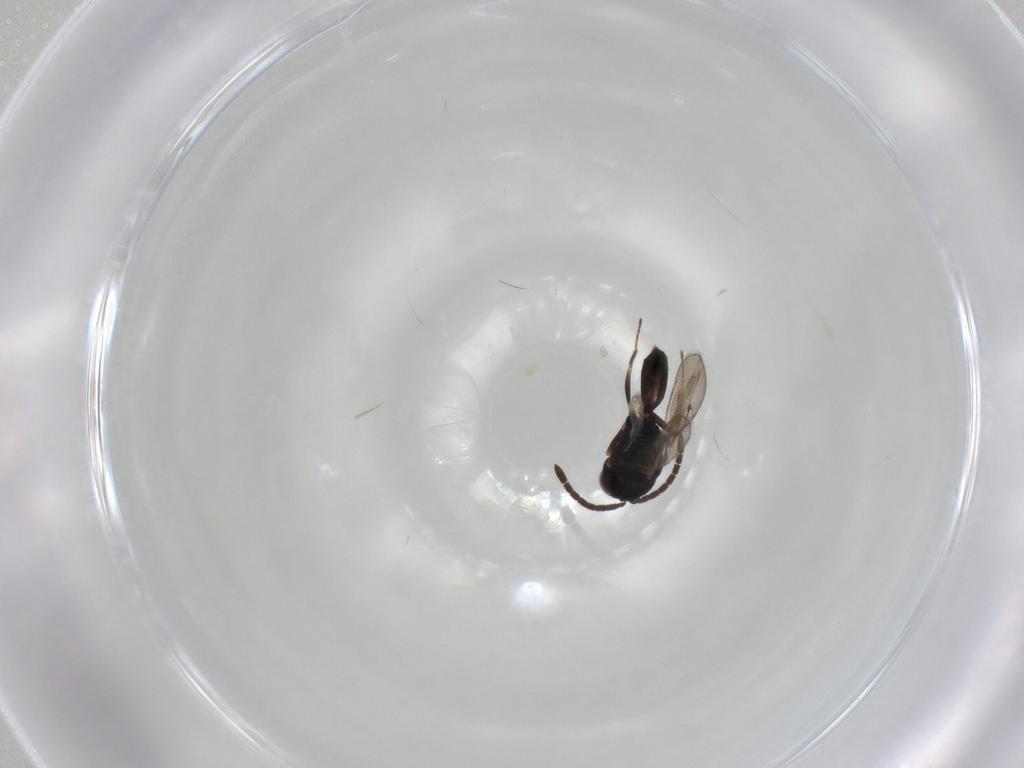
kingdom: Animalia
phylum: Arthropoda
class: Insecta
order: Hymenoptera
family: Pteromalidae
